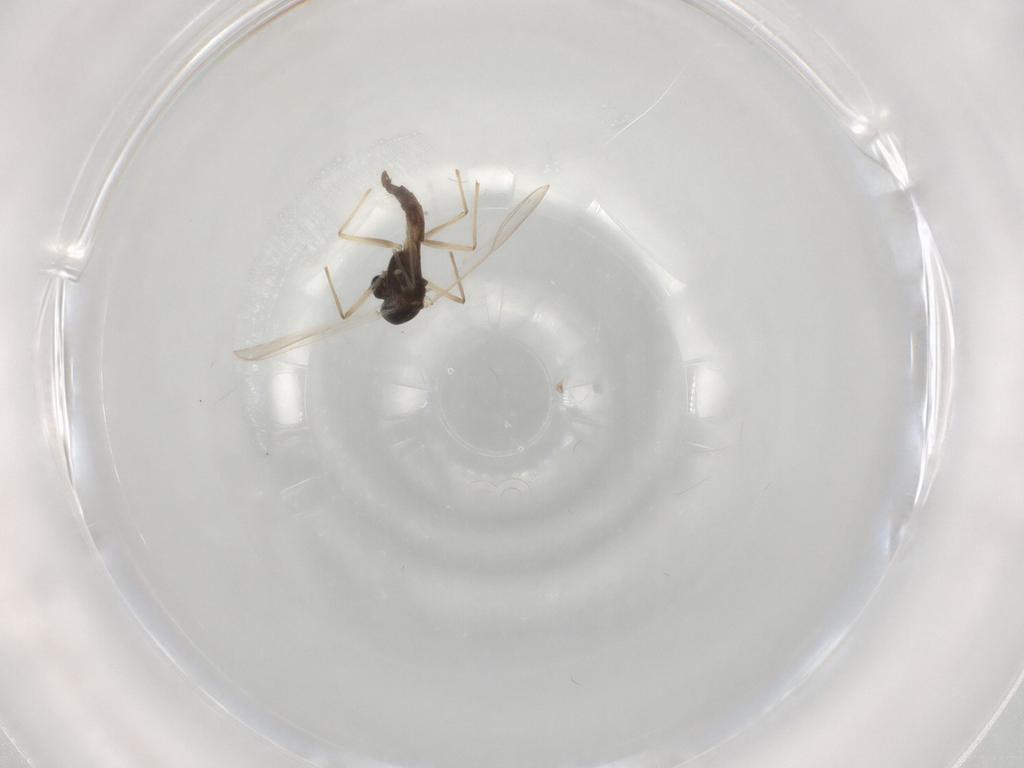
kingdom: Animalia
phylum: Arthropoda
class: Insecta
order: Diptera
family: Chironomidae
